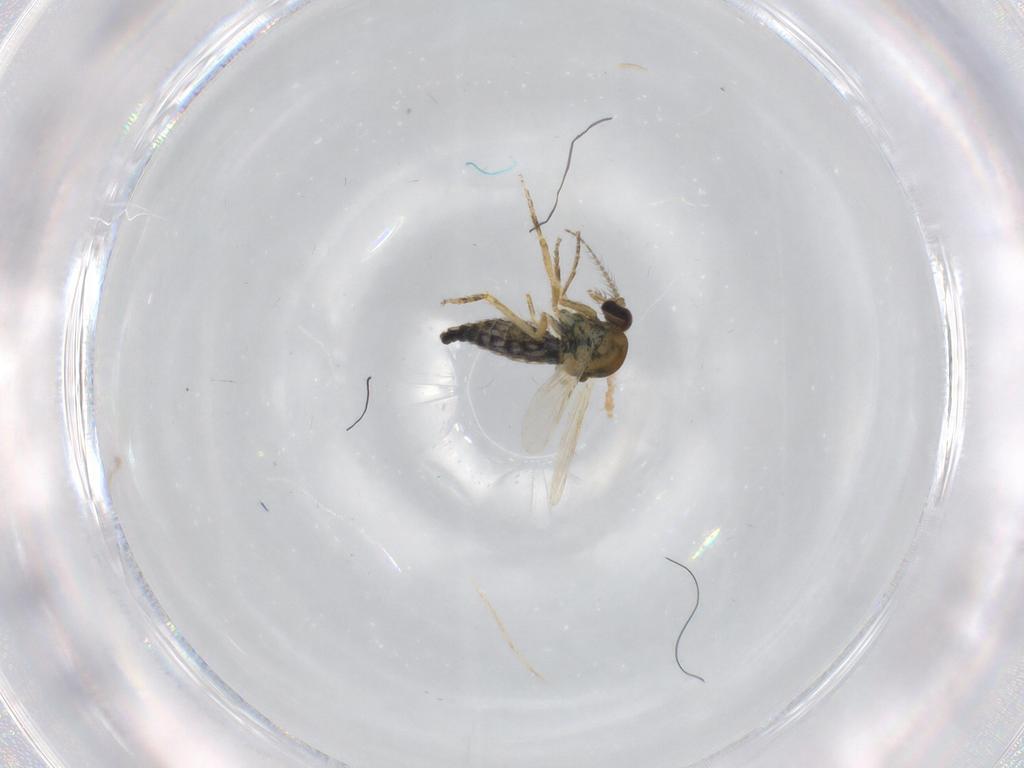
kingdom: Animalia
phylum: Arthropoda
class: Insecta
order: Diptera
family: Ceratopogonidae
